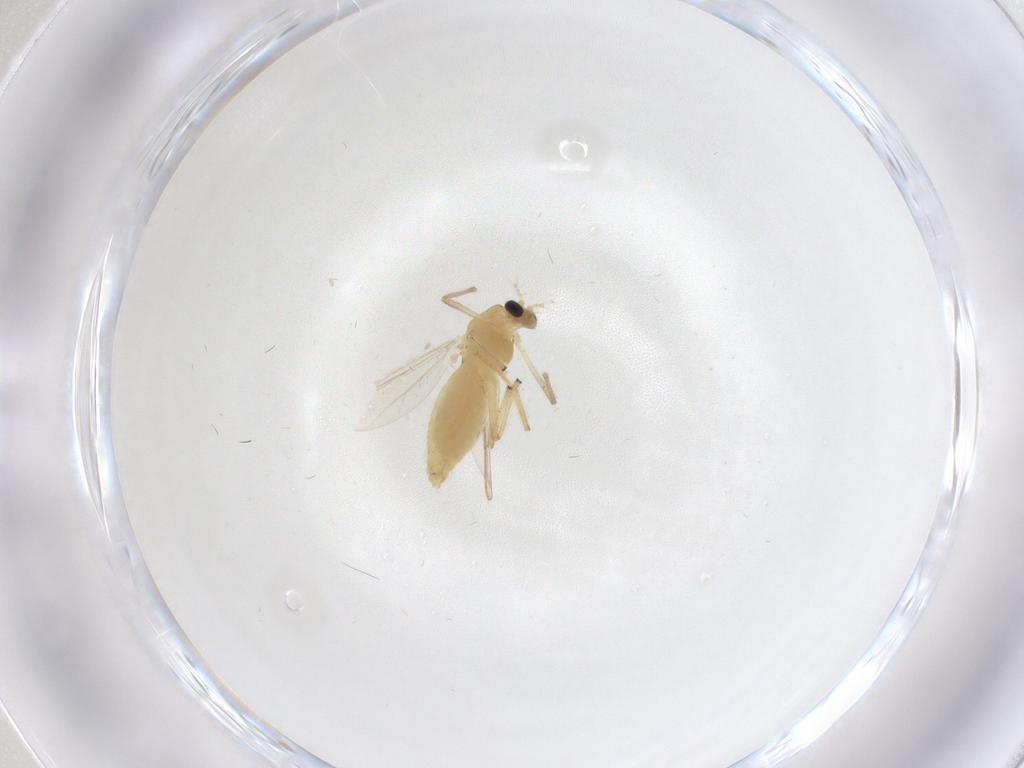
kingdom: Animalia
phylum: Arthropoda
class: Insecta
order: Diptera
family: Chironomidae
